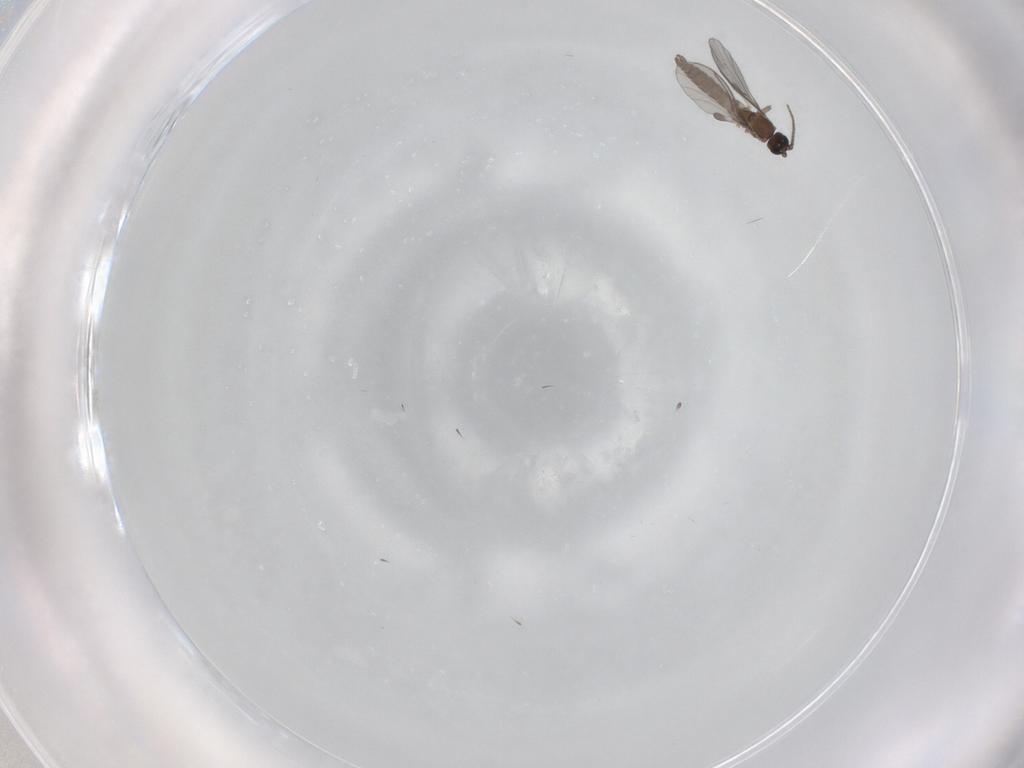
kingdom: Animalia
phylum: Arthropoda
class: Insecta
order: Diptera
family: Sciaridae
